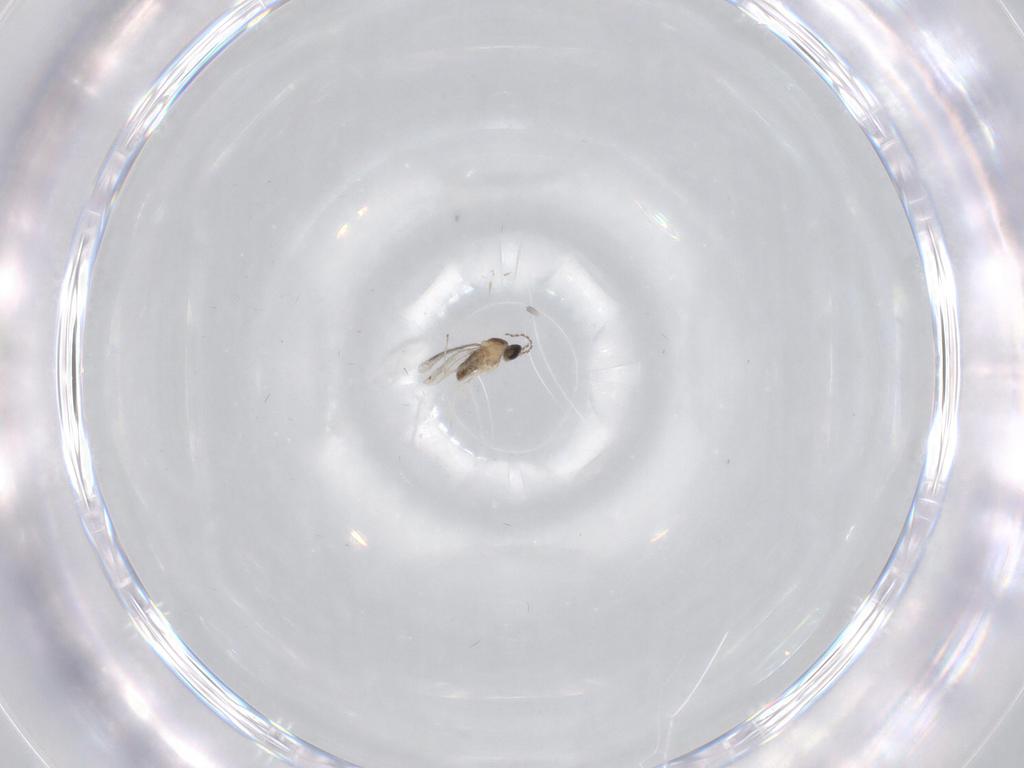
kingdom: Animalia
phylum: Arthropoda
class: Insecta
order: Diptera
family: Cecidomyiidae
